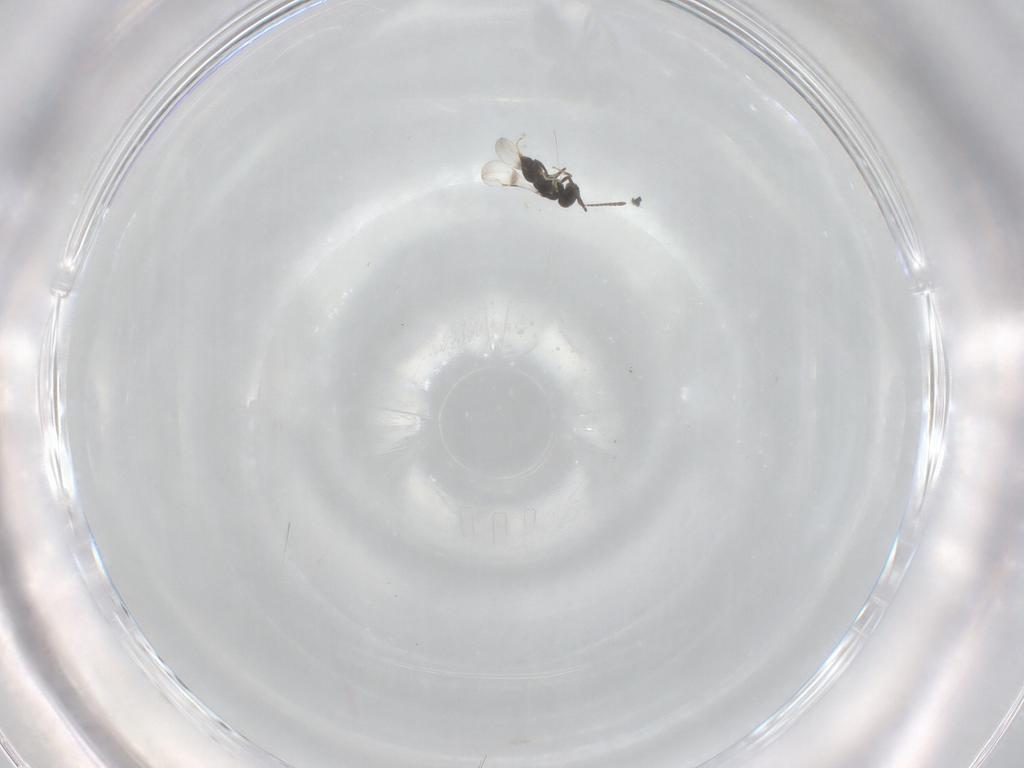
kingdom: Animalia
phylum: Arthropoda
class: Insecta
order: Hymenoptera
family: Ceraphronidae
